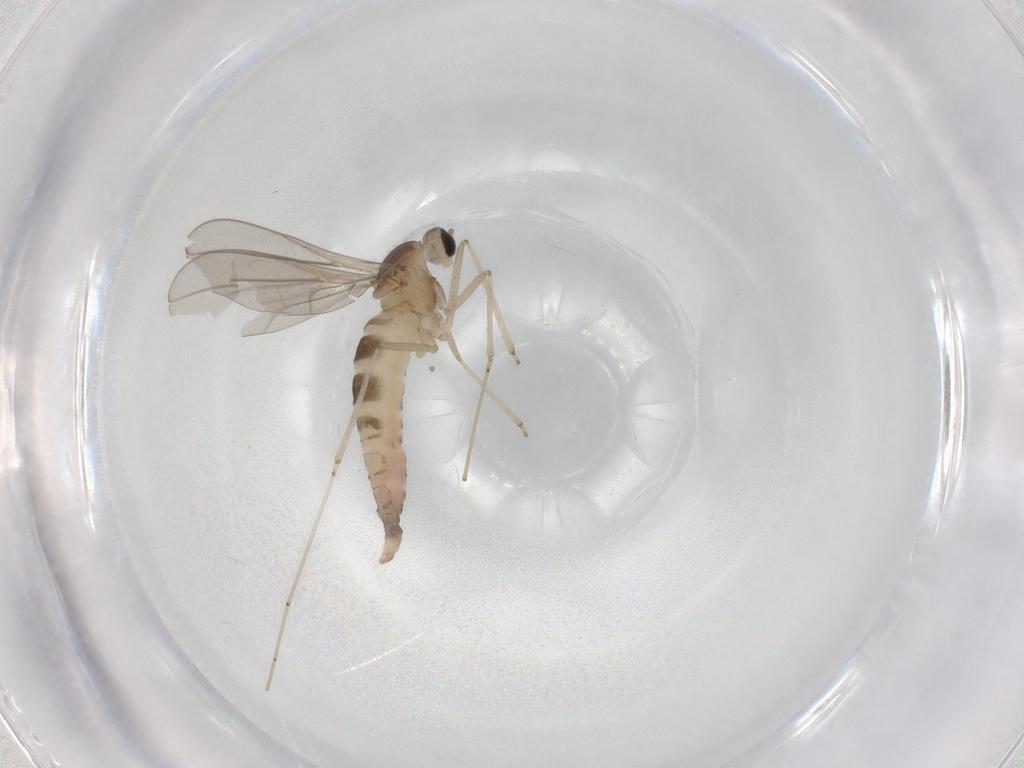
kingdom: Animalia
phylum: Arthropoda
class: Insecta
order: Diptera
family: Cecidomyiidae
